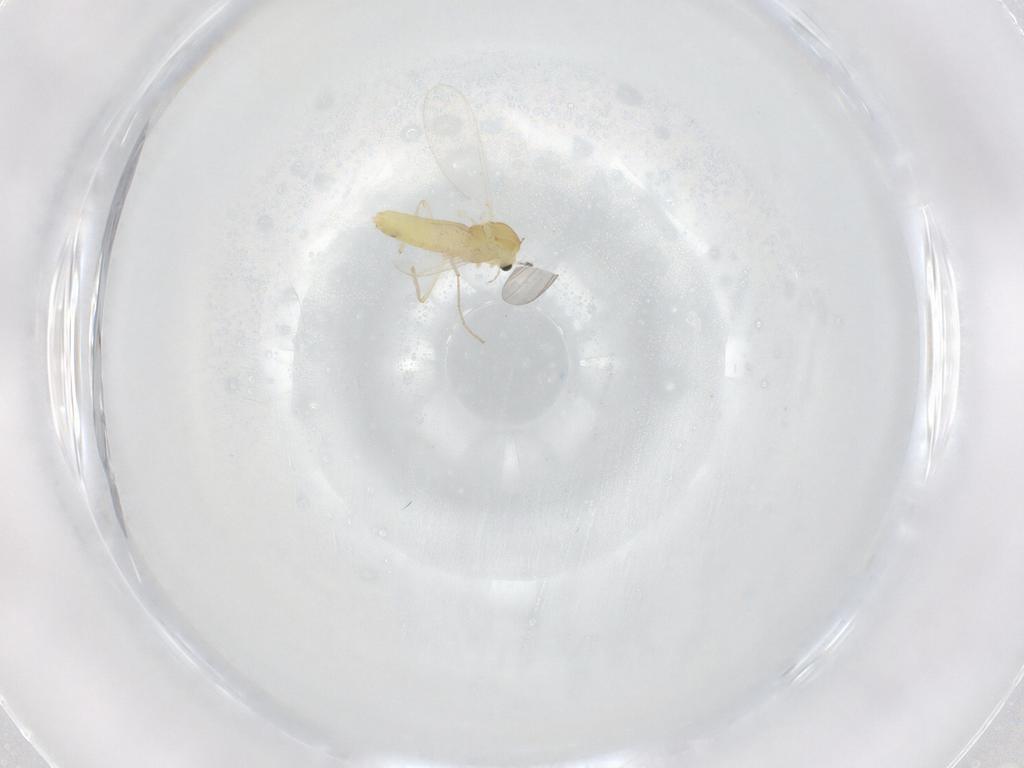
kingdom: Animalia
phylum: Arthropoda
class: Insecta
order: Diptera
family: Chironomidae
